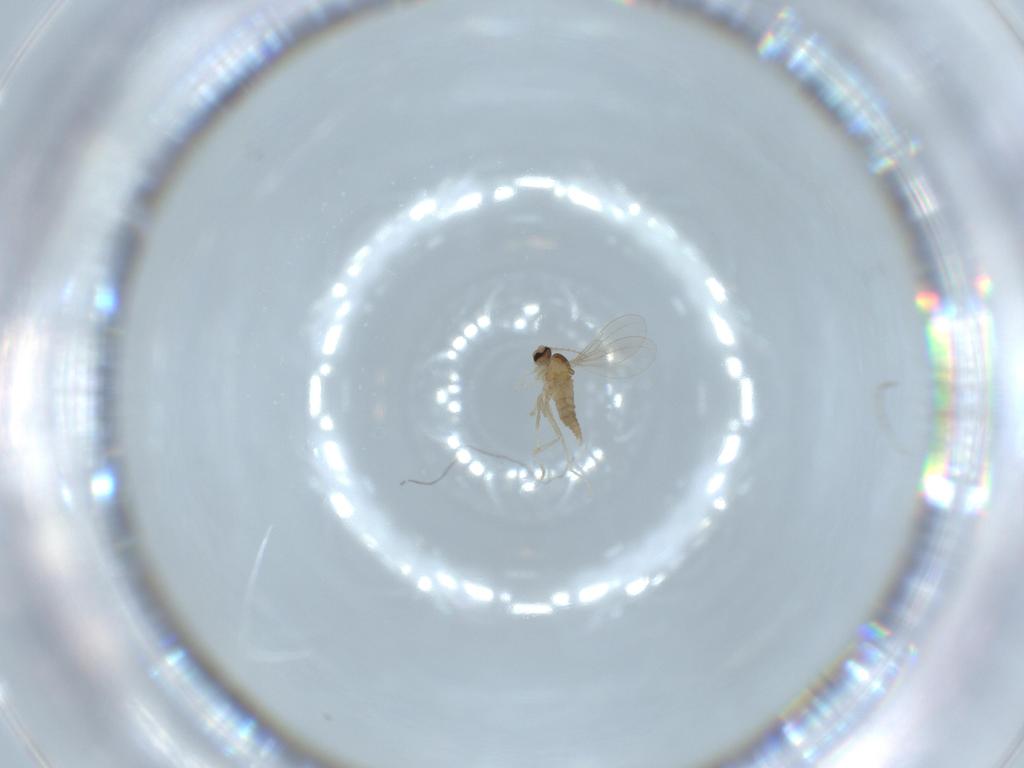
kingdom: Animalia
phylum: Arthropoda
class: Insecta
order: Diptera
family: Cecidomyiidae
